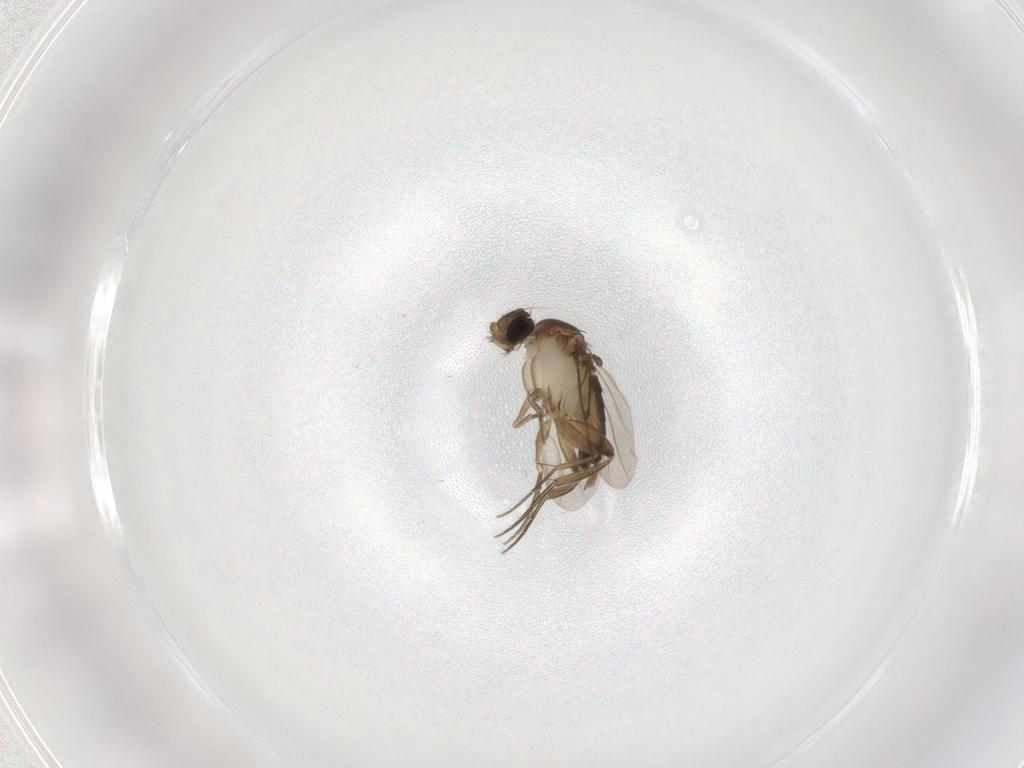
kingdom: Animalia
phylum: Arthropoda
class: Insecta
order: Diptera
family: Phoridae
